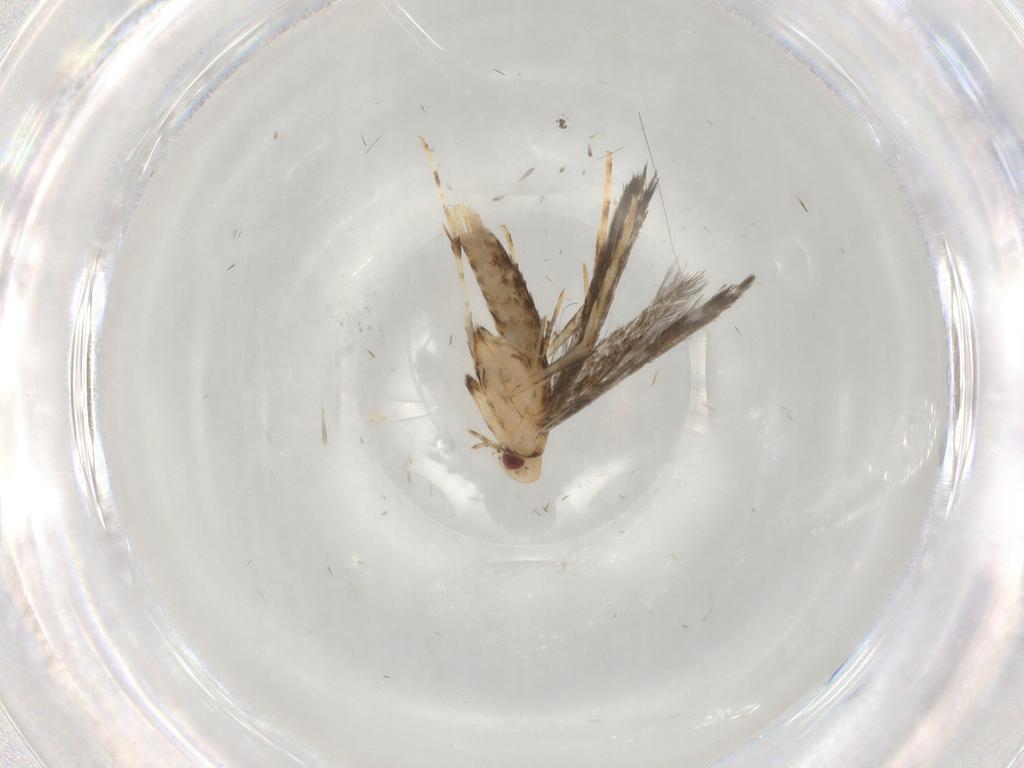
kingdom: Animalia
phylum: Arthropoda
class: Insecta
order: Lepidoptera
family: Gracillariidae
